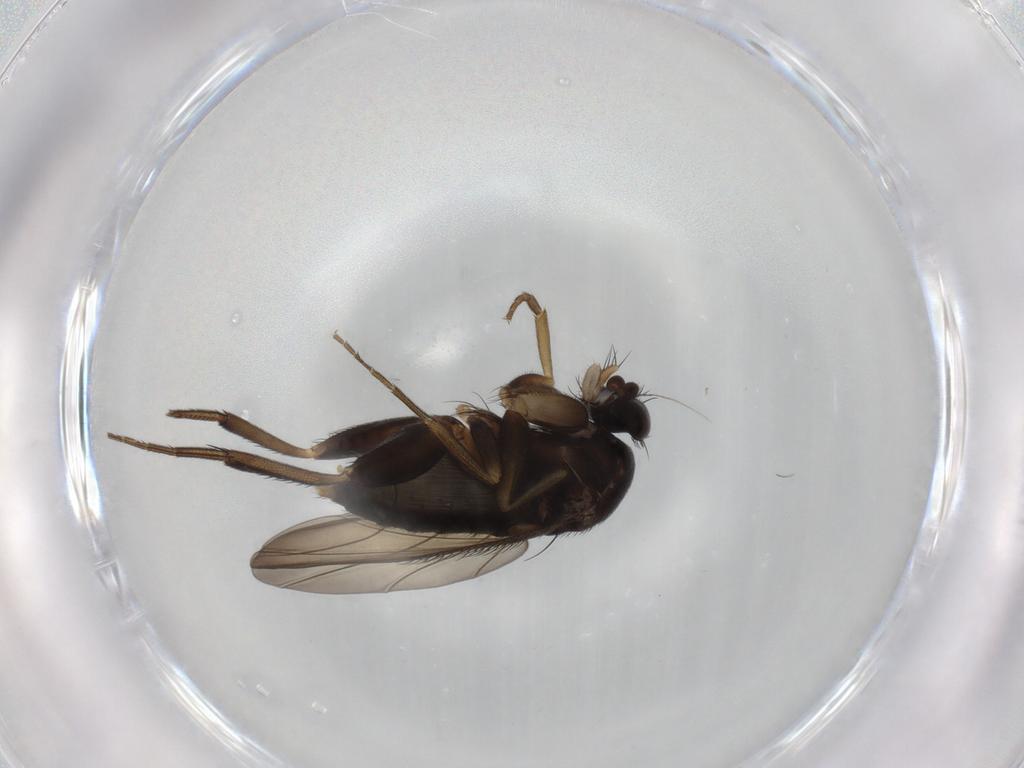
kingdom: Animalia
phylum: Arthropoda
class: Insecta
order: Diptera
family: Phoridae
